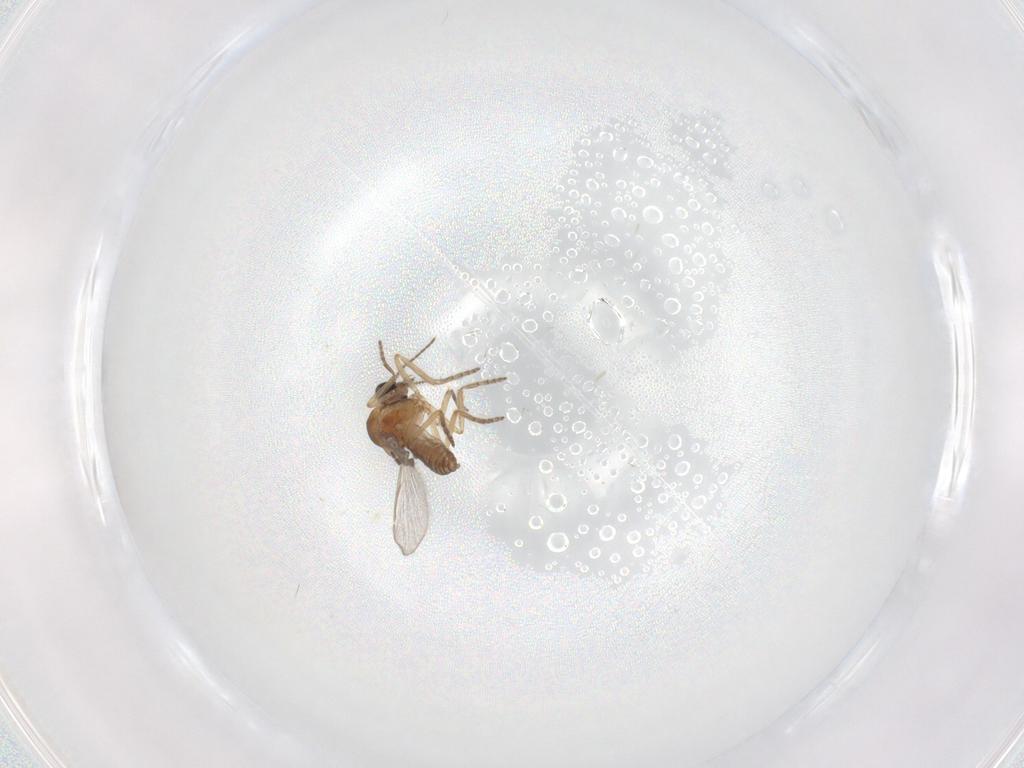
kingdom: Animalia
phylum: Arthropoda
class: Insecta
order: Diptera
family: Ceratopogonidae
